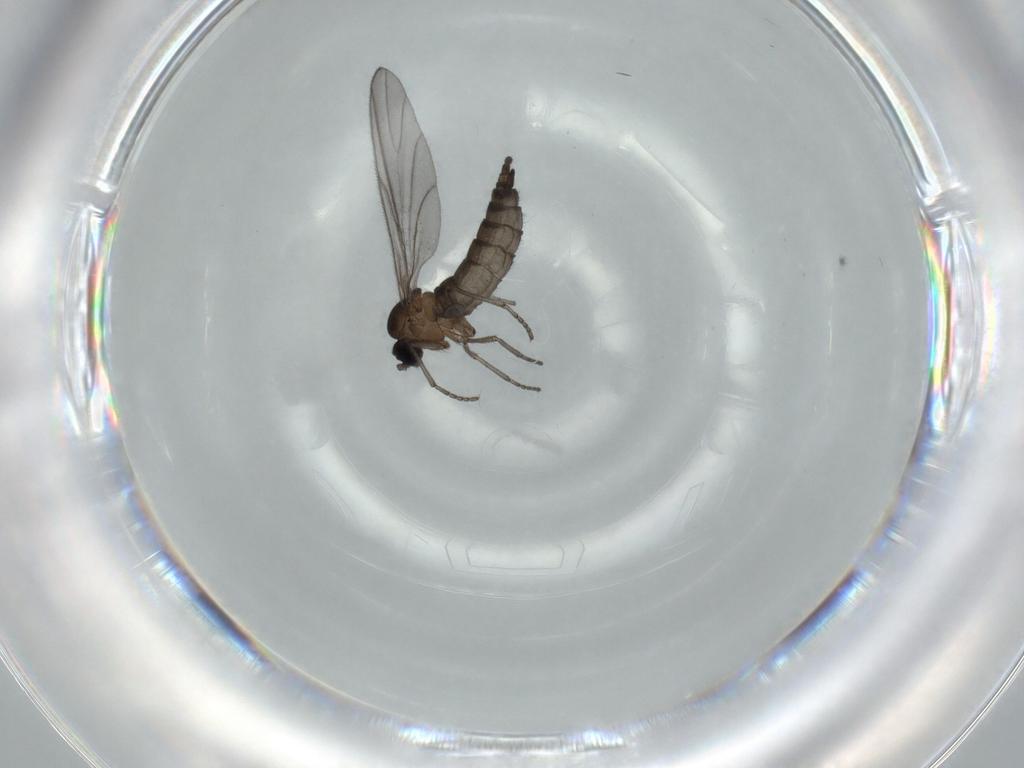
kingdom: Animalia
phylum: Arthropoda
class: Insecta
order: Diptera
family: Sciaridae
